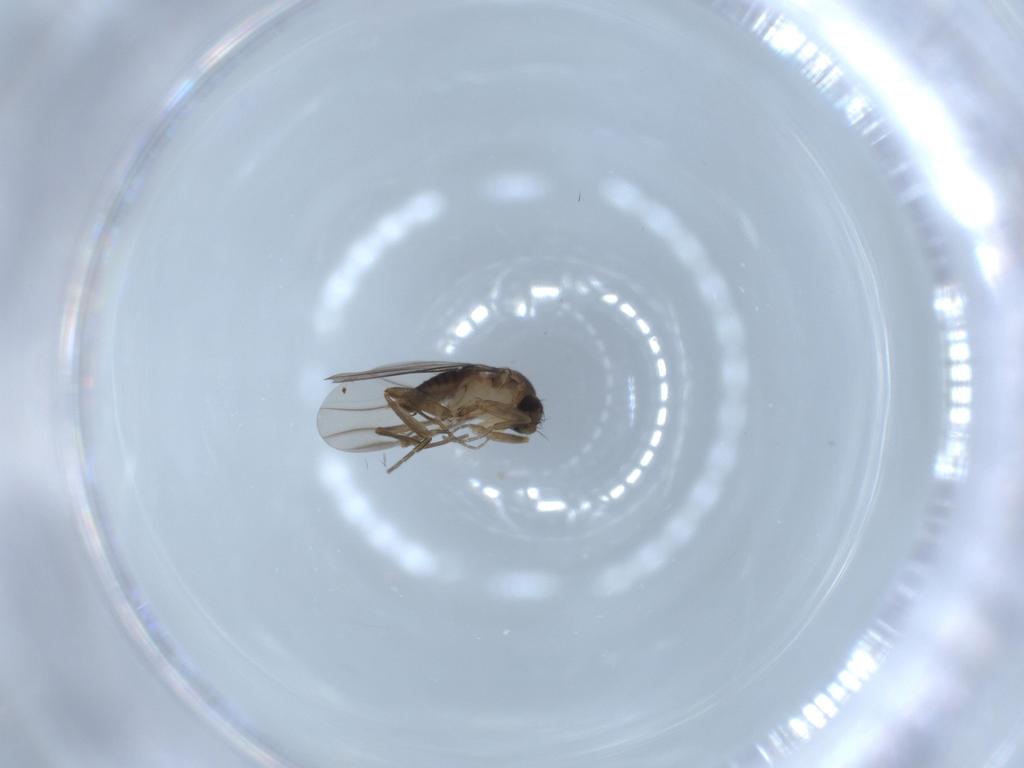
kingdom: Animalia
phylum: Arthropoda
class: Insecta
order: Diptera
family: Phoridae
